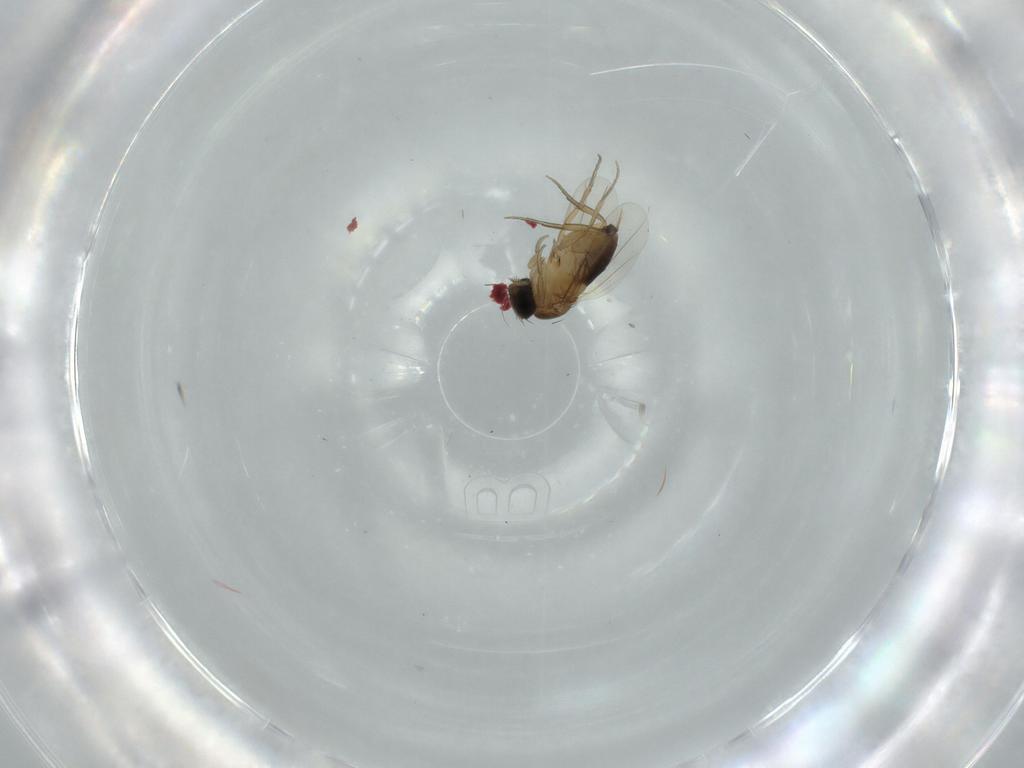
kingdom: Animalia
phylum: Arthropoda
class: Insecta
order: Diptera
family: Phoridae
